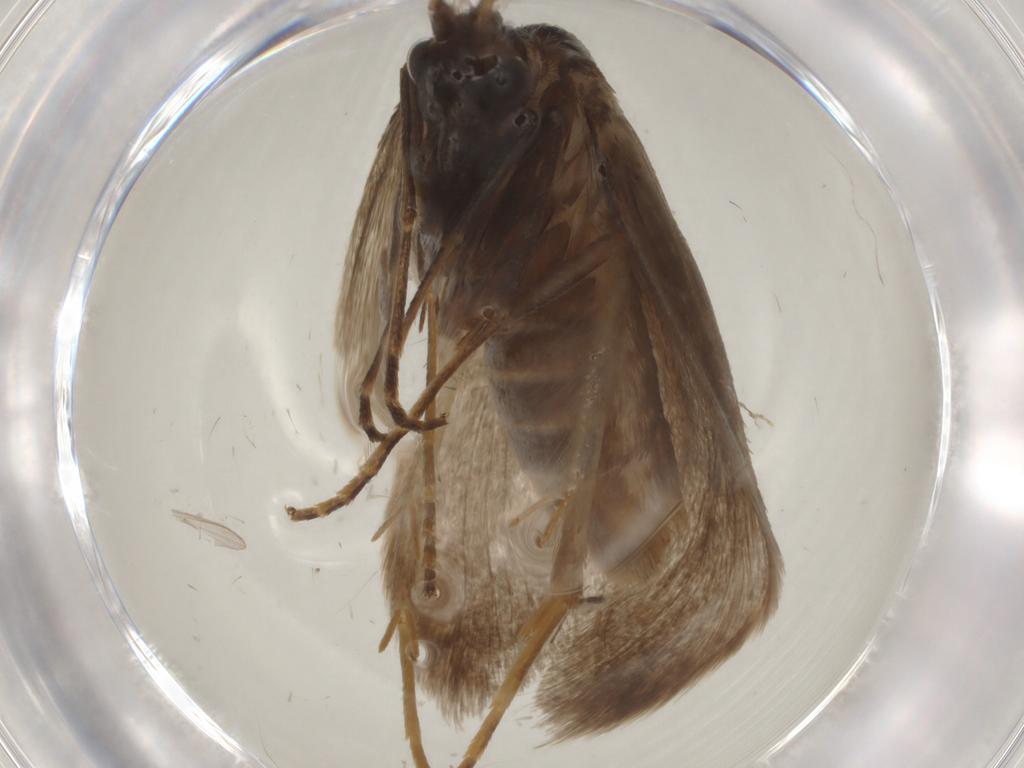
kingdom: Animalia
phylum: Arthropoda
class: Insecta
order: Lepidoptera
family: Adelidae
